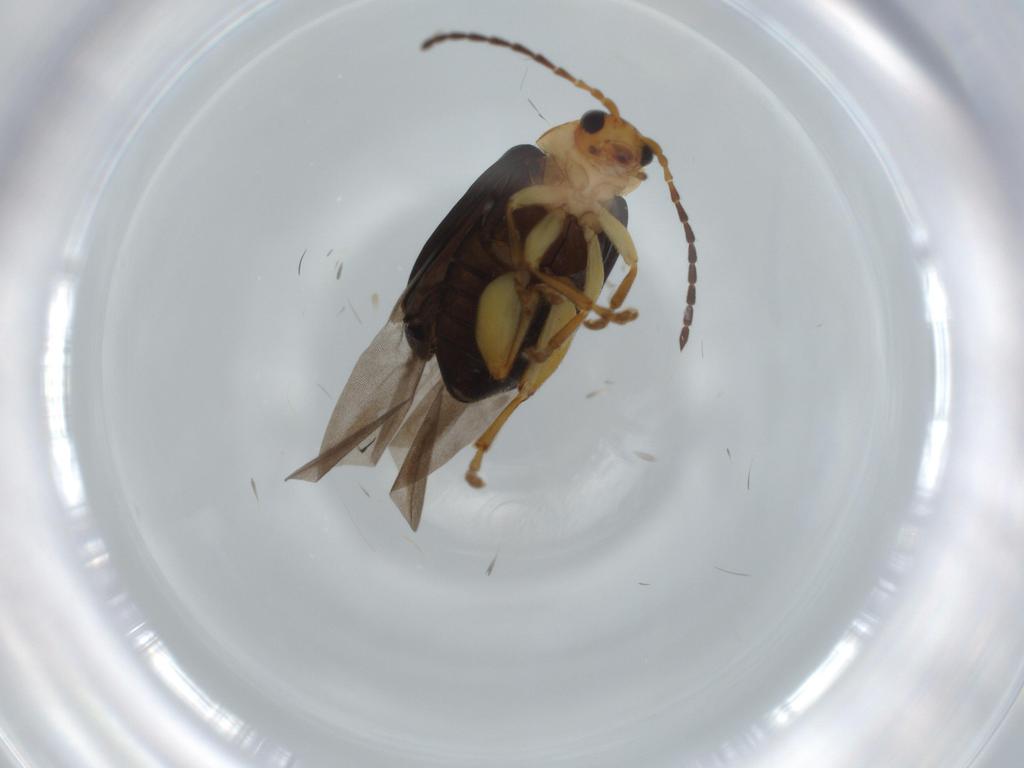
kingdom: Animalia
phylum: Arthropoda
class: Insecta
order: Coleoptera
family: Chrysomelidae
